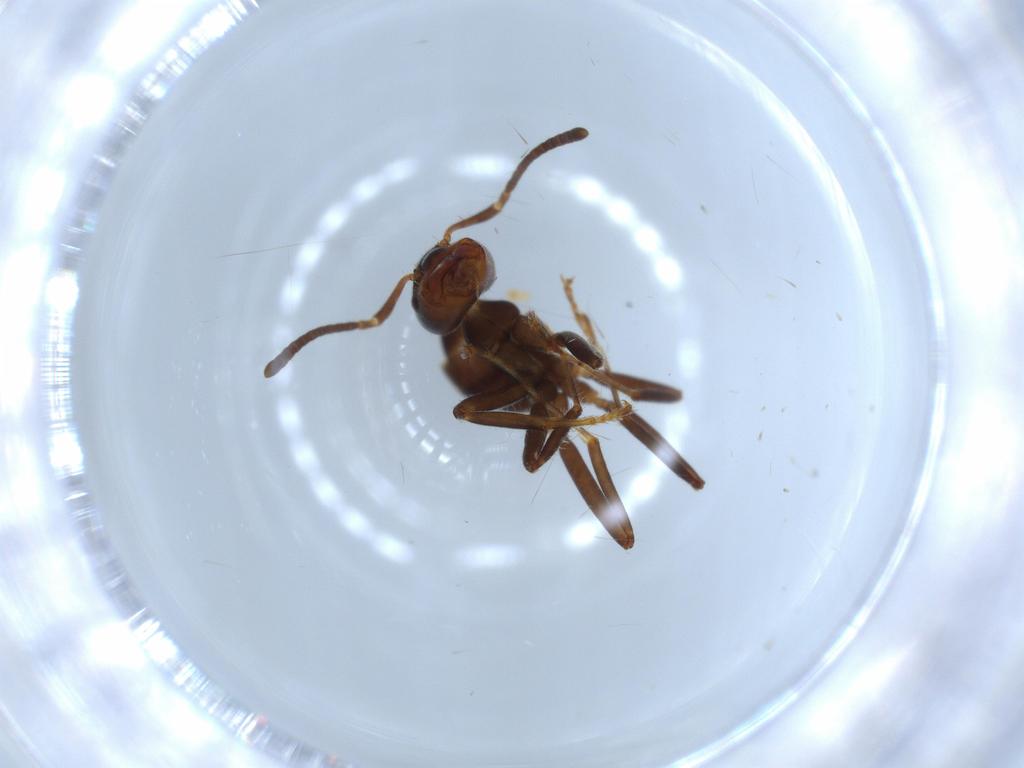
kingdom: Animalia
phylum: Arthropoda
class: Insecta
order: Hymenoptera
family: Formicidae
